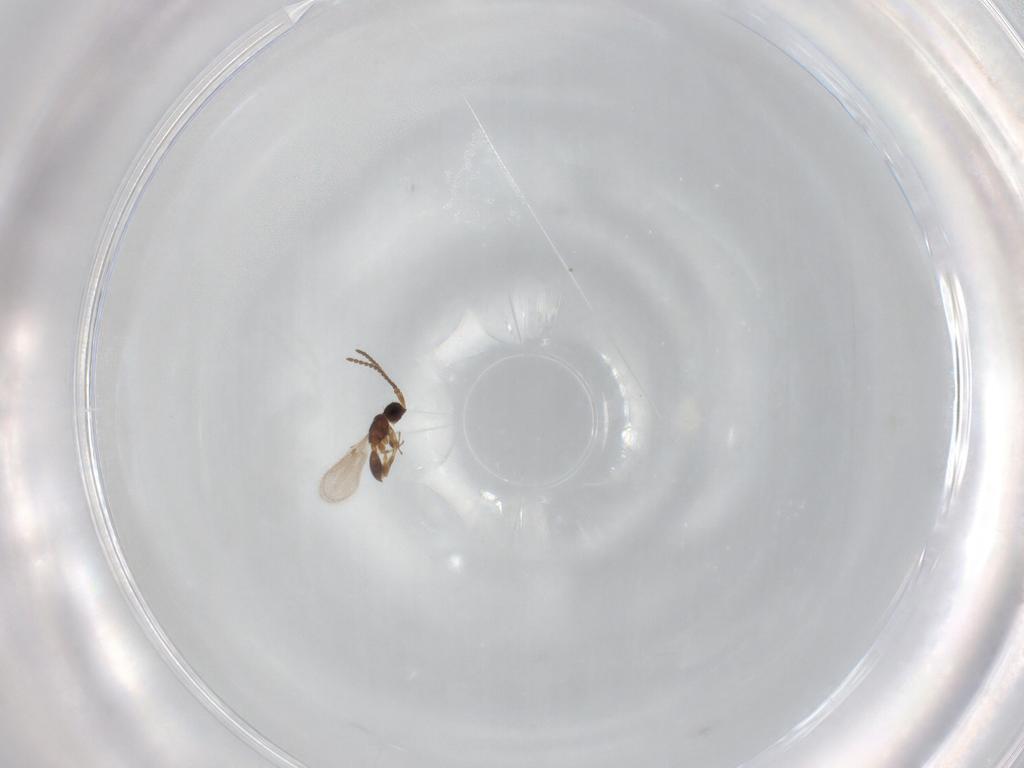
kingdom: Animalia
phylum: Arthropoda
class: Insecta
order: Hymenoptera
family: Diapriidae
